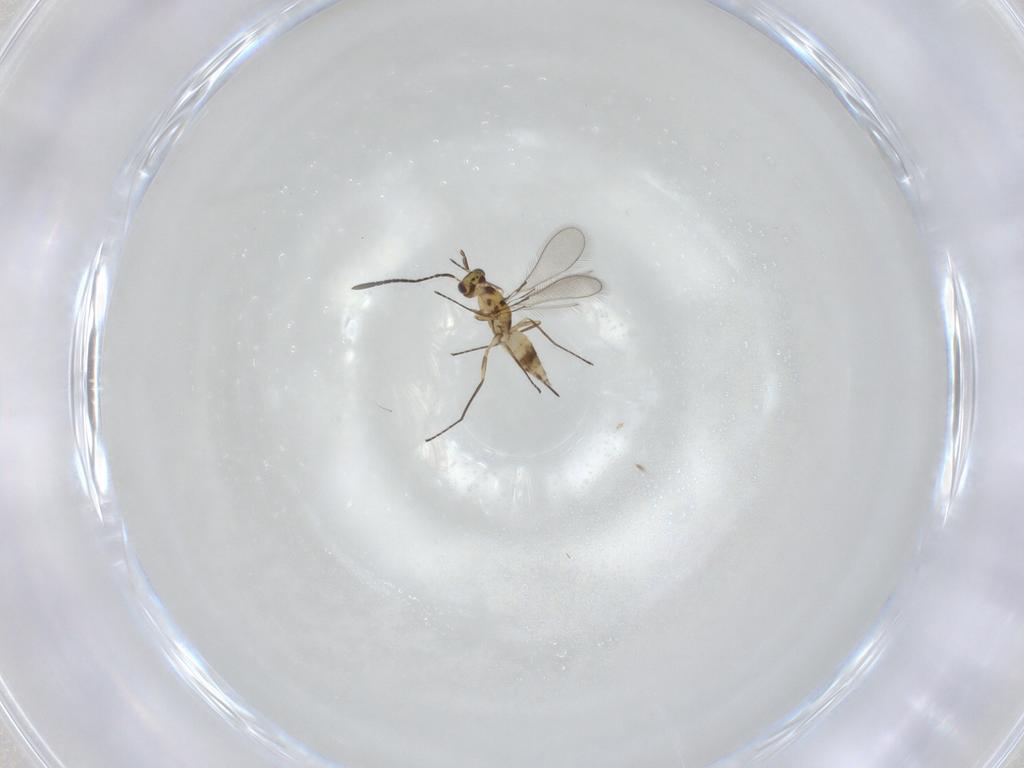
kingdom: Animalia
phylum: Arthropoda
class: Insecta
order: Hymenoptera
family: Mymaridae
